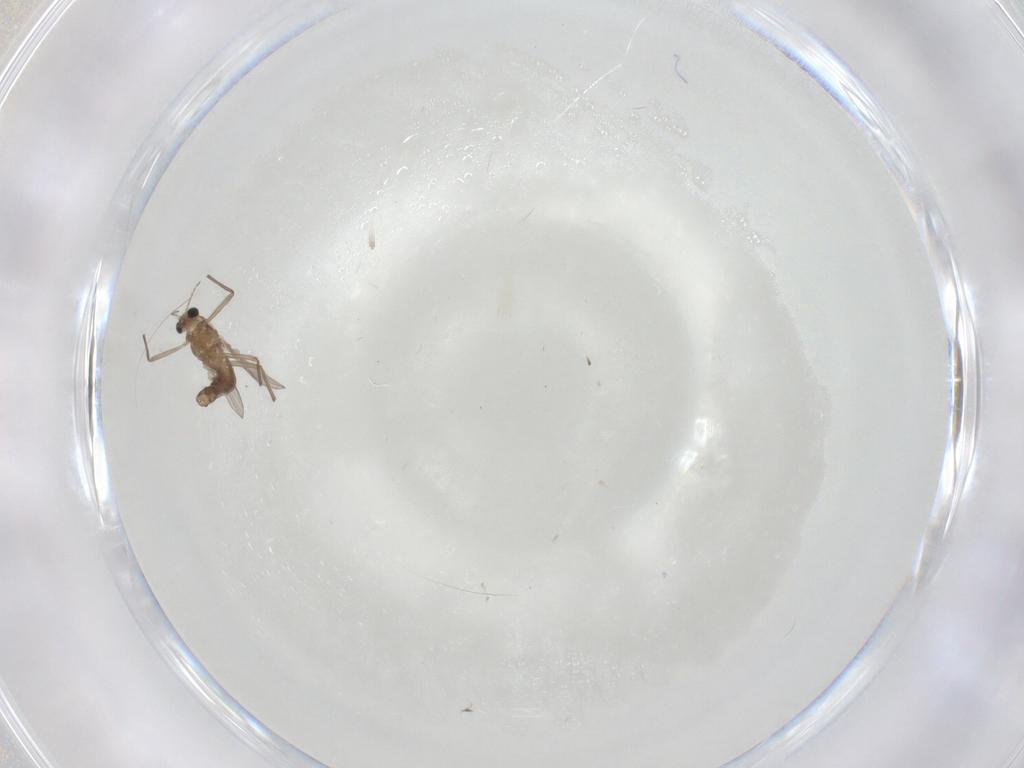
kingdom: Animalia
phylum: Arthropoda
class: Insecta
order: Diptera
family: Chironomidae
